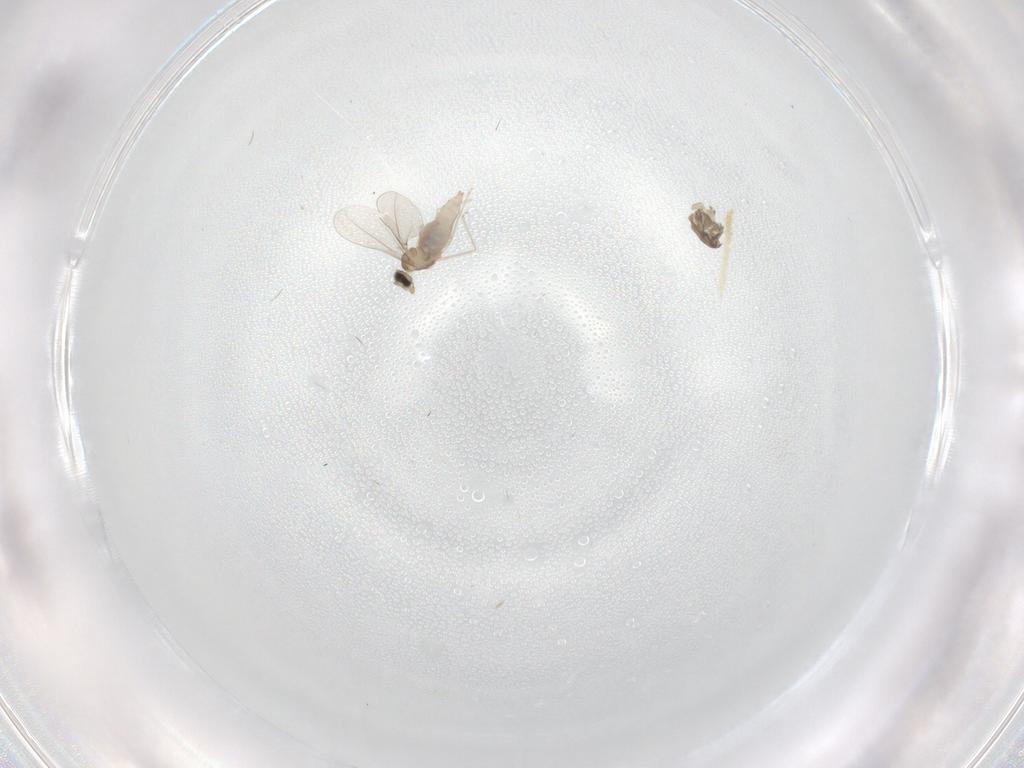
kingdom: Animalia
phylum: Arthropoda
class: Insecta
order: Diptera
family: Chironomidae
